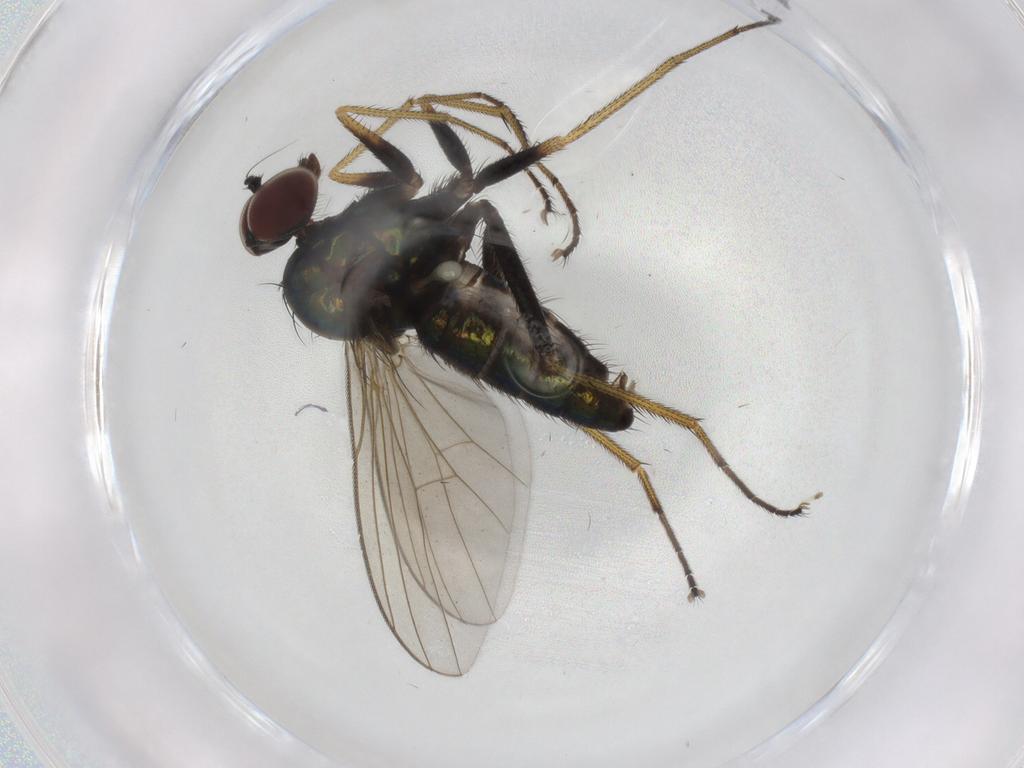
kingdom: Animalia
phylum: Arthropoda
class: Insecta
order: Diptera
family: Dolichopodidae
